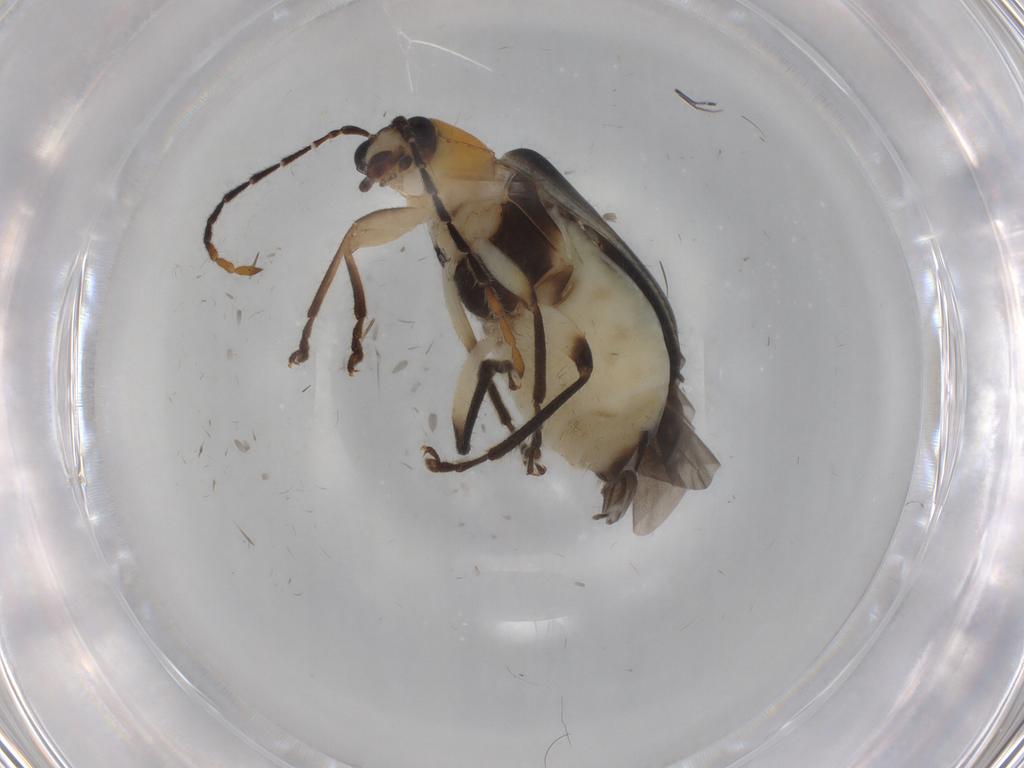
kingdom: Animalia
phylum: Arthropoda
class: Insecta
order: Coleoptera
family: Chrysomelidae
